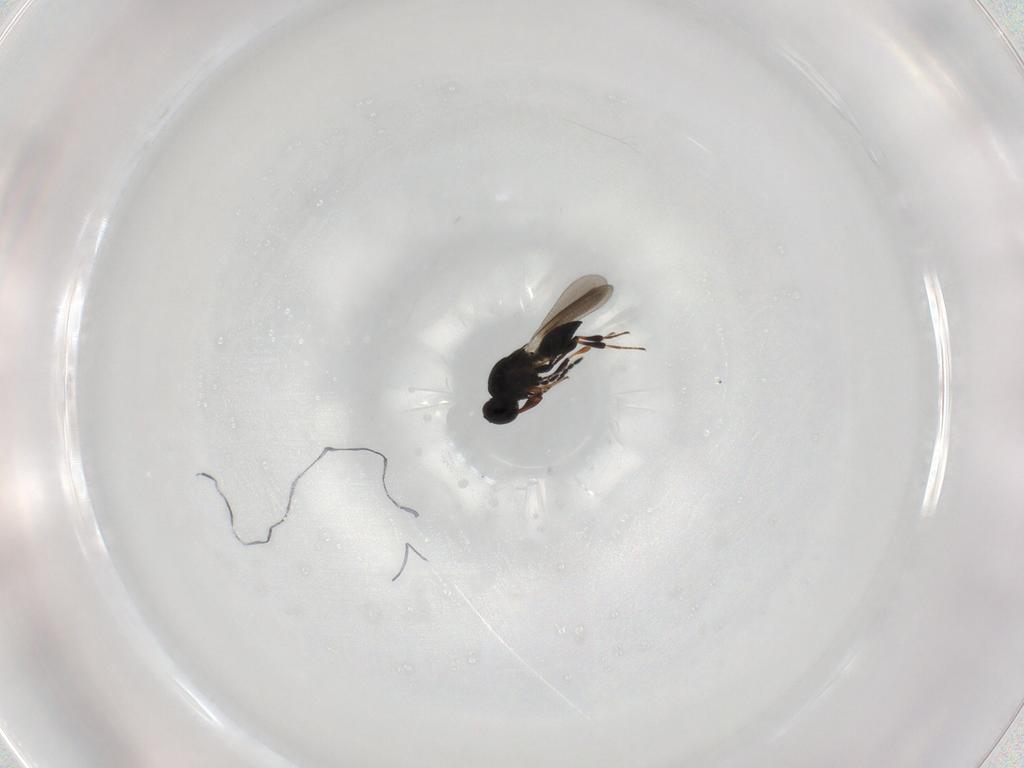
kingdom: Animalia
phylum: Arthropoda
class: Insecta
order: Hymenoptera
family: Platygastridae
